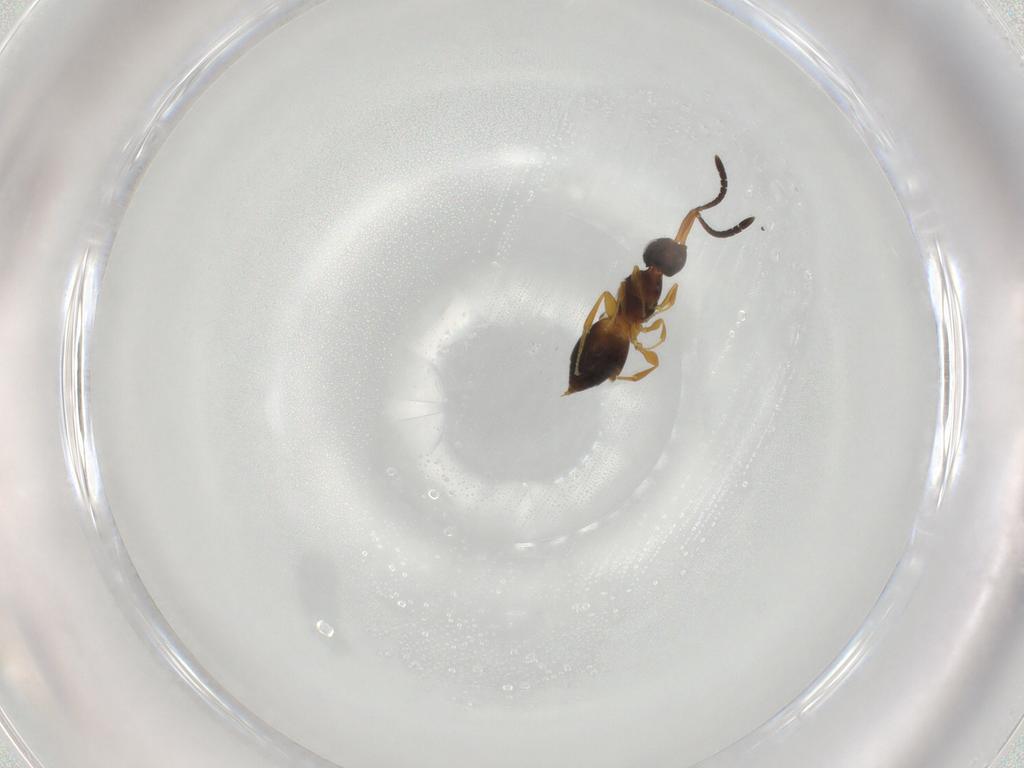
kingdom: Animalia
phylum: Arthropoda
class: Insecta
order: Hymenoptera
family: Megaspilidae
